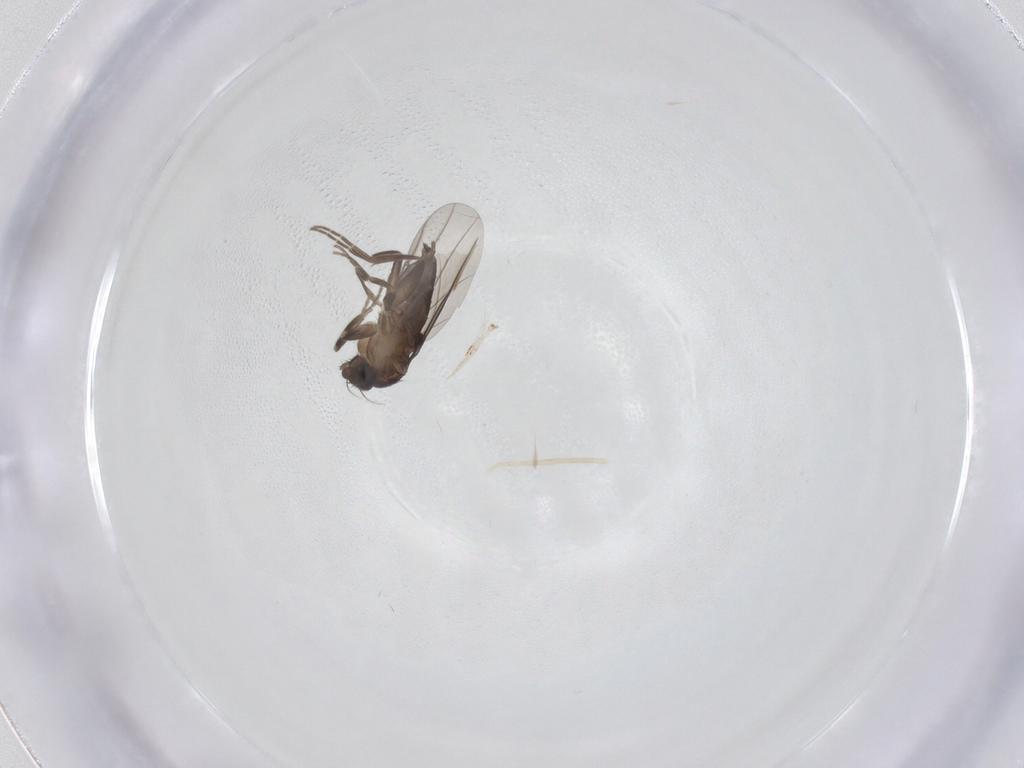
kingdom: Animalia
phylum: Arthropoda
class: Insecta
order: Diptera
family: Phoridae
